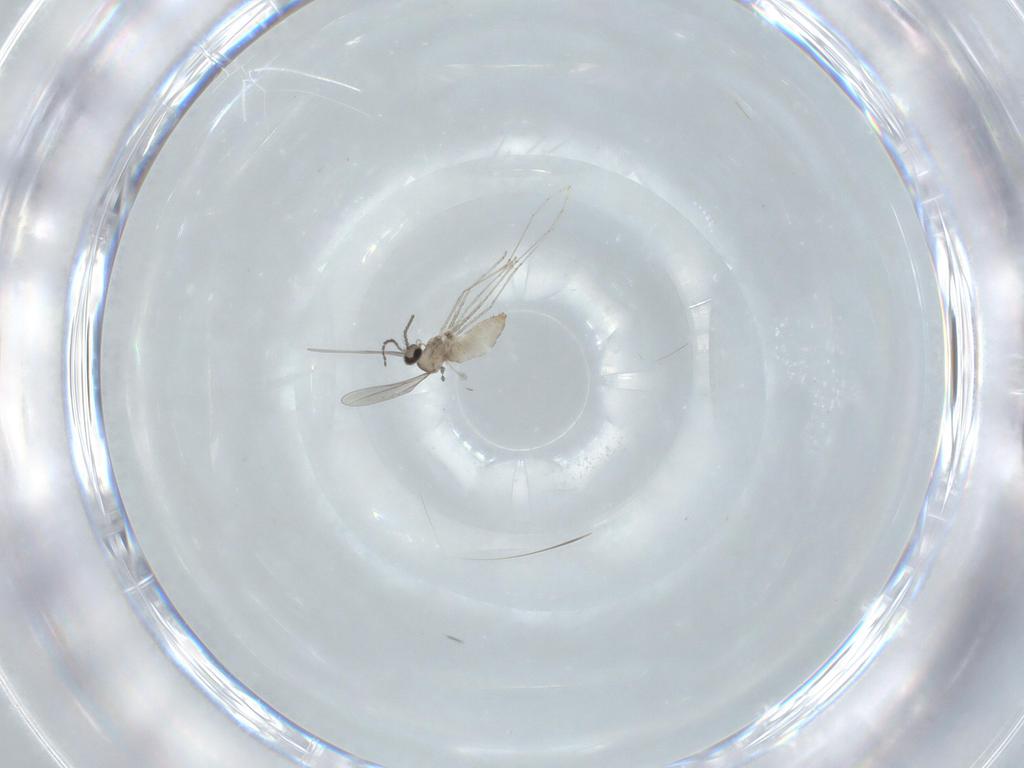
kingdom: Animalia
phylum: Arthropoda
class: Insecta
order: Diptera
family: Cecidomyiidae
